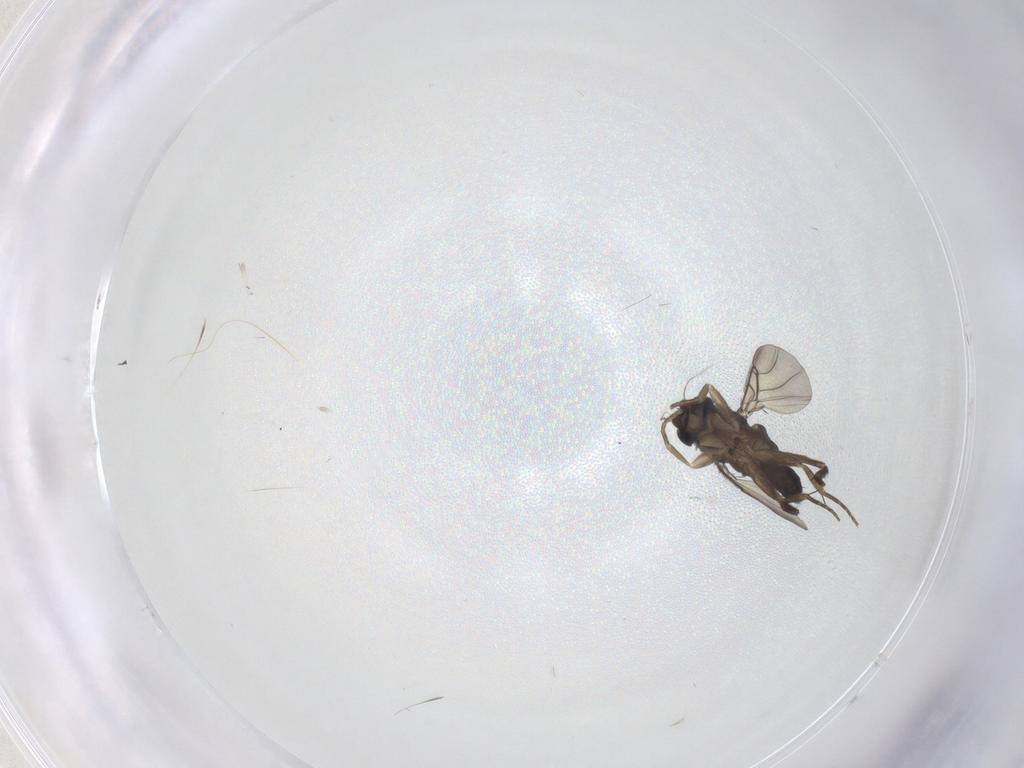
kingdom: Animalia
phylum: Arthropoda
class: Insecta
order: Diptera
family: Phoridae
